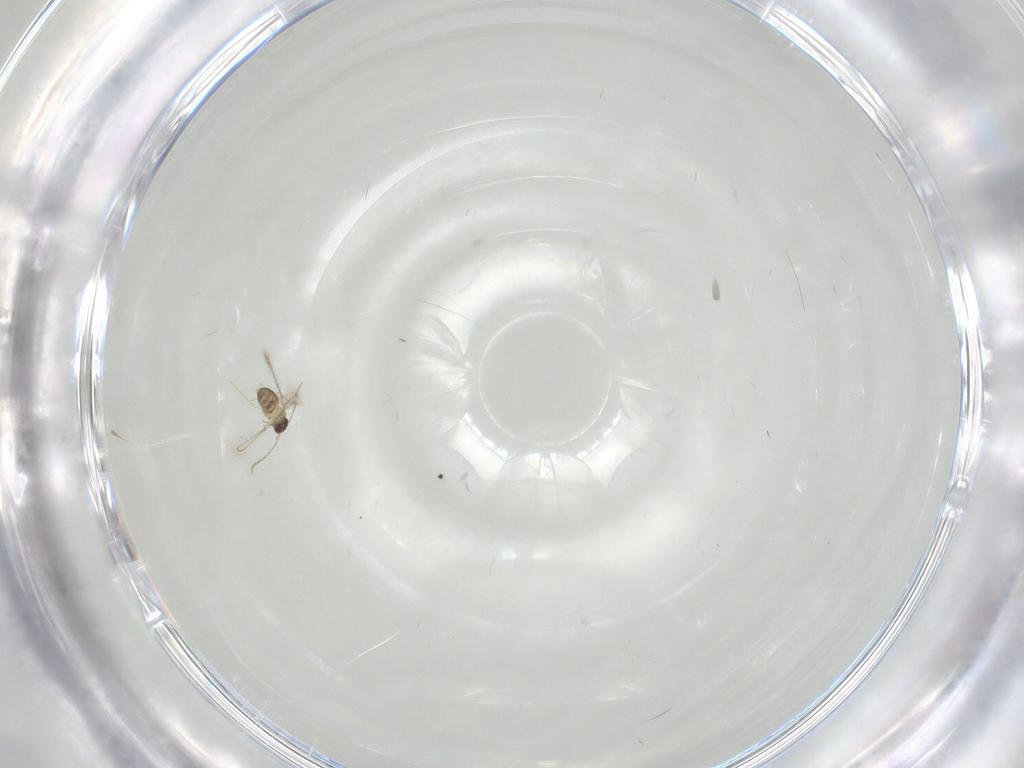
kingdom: Animalia
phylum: Arthropoda
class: Insecta
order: Hymenoptera
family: Mymaridae
